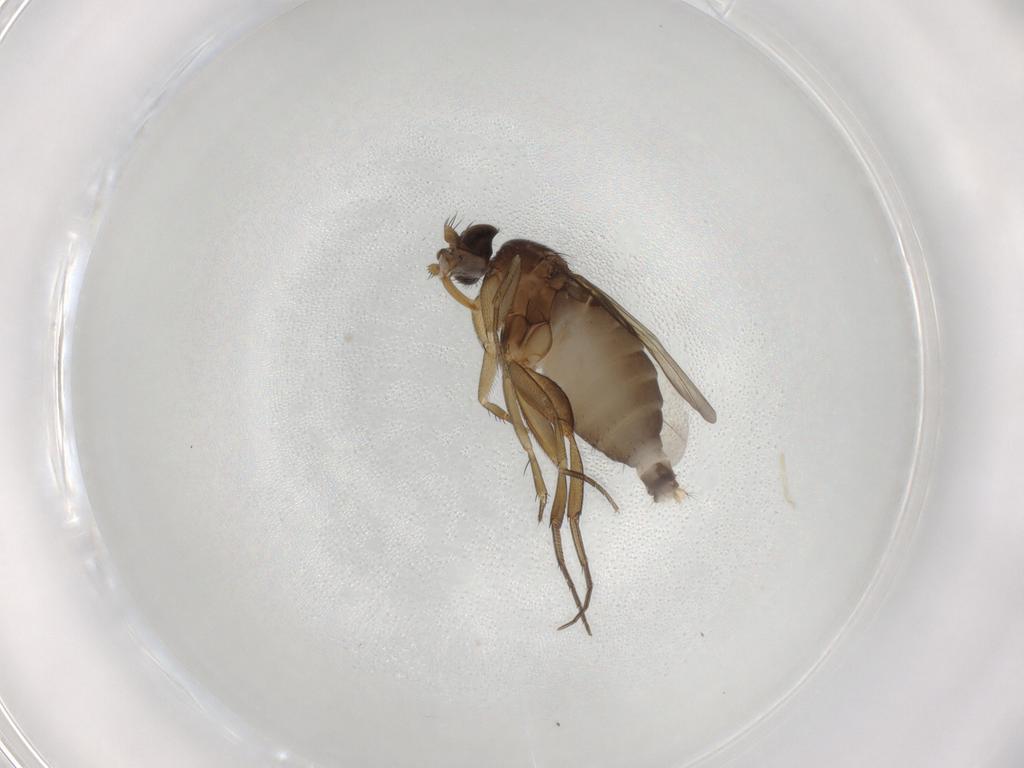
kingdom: Animalia
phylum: Arthropoda
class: Insecta
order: Diptera
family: Phoridae
